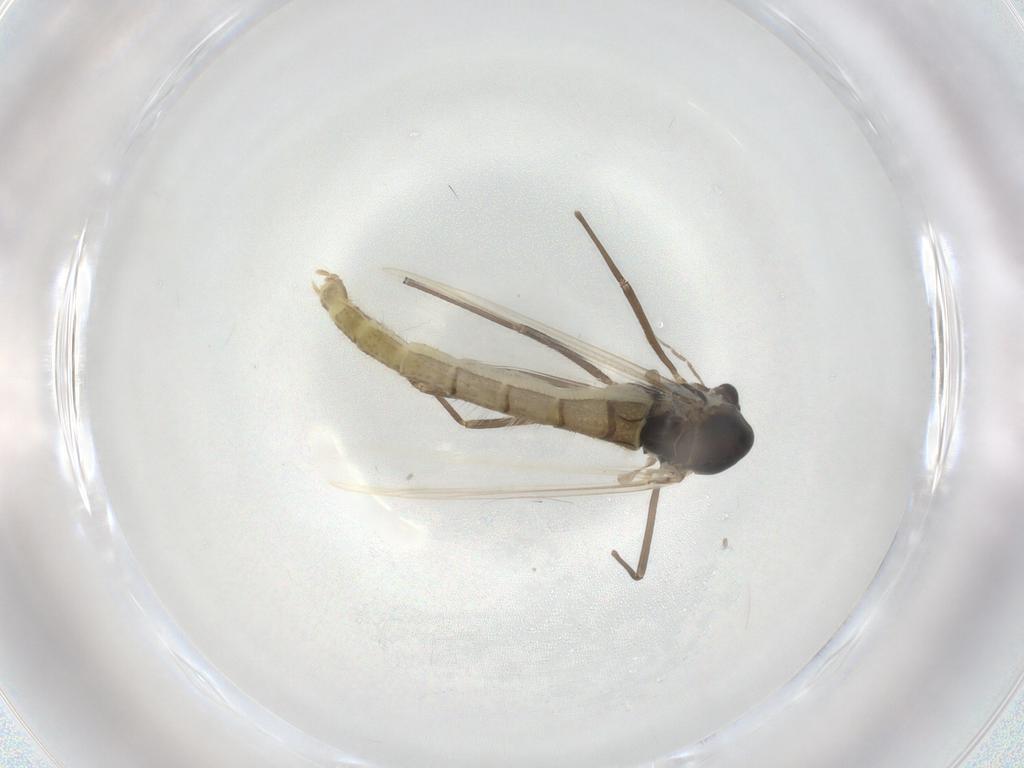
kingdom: Animalia
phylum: Arthropoda
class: Insecta
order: Diptera
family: Chironomidae
